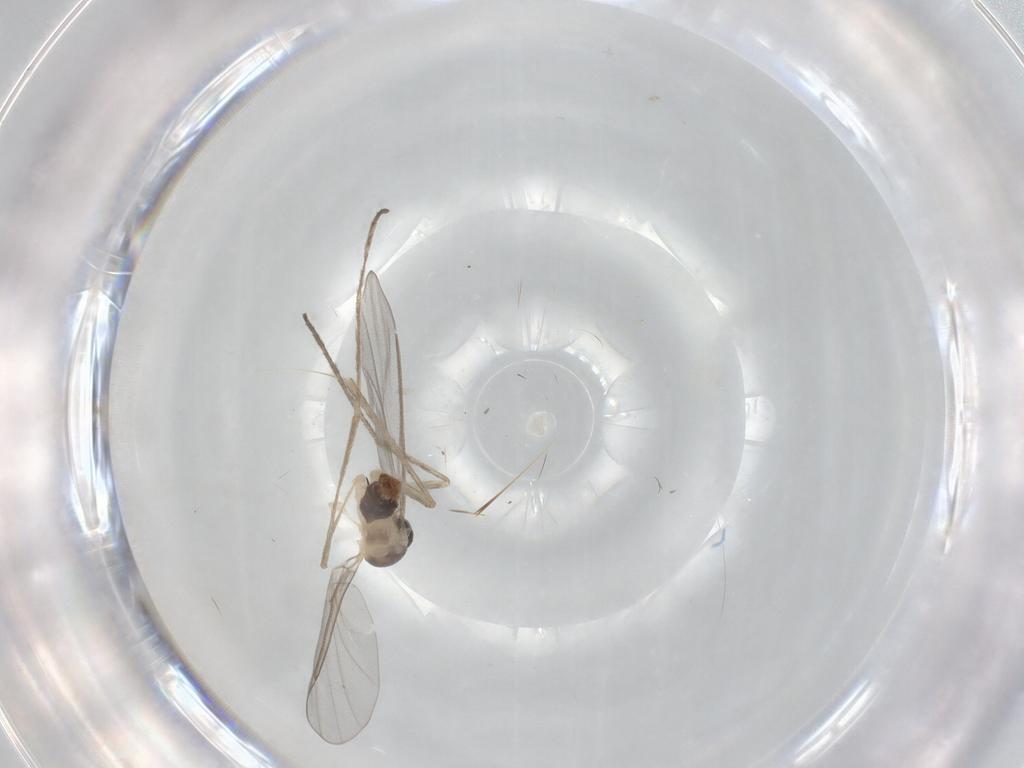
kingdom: Animalia
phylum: Arthropoda
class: Insecta
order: Diptera
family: Cecidomyiidae
